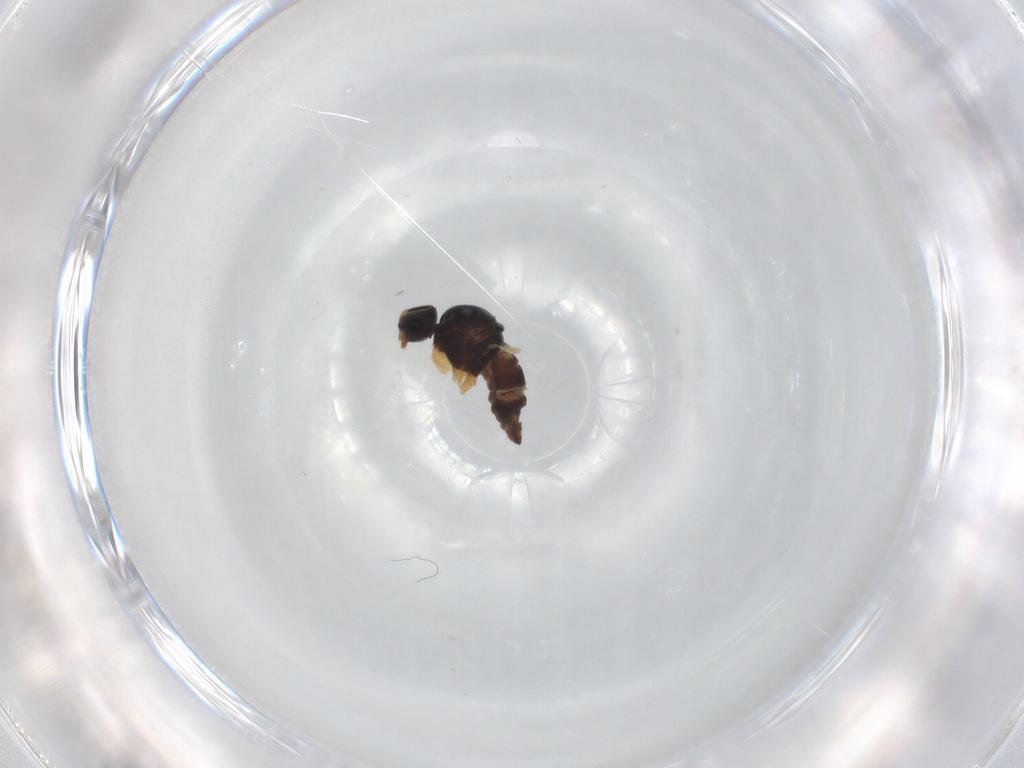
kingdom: Animalia
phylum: Arthropoda
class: Insecta
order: Diptera
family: Hybotidae
